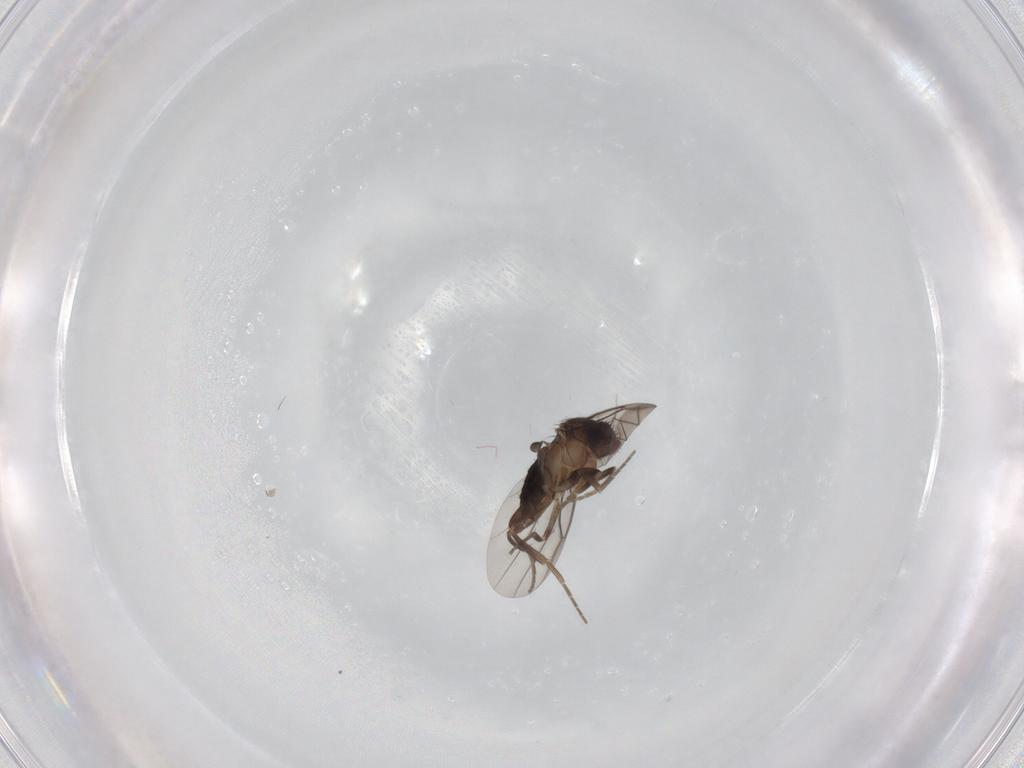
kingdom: Animalia
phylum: Arthropoda
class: Insecta
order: Diptera
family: Phoridae
